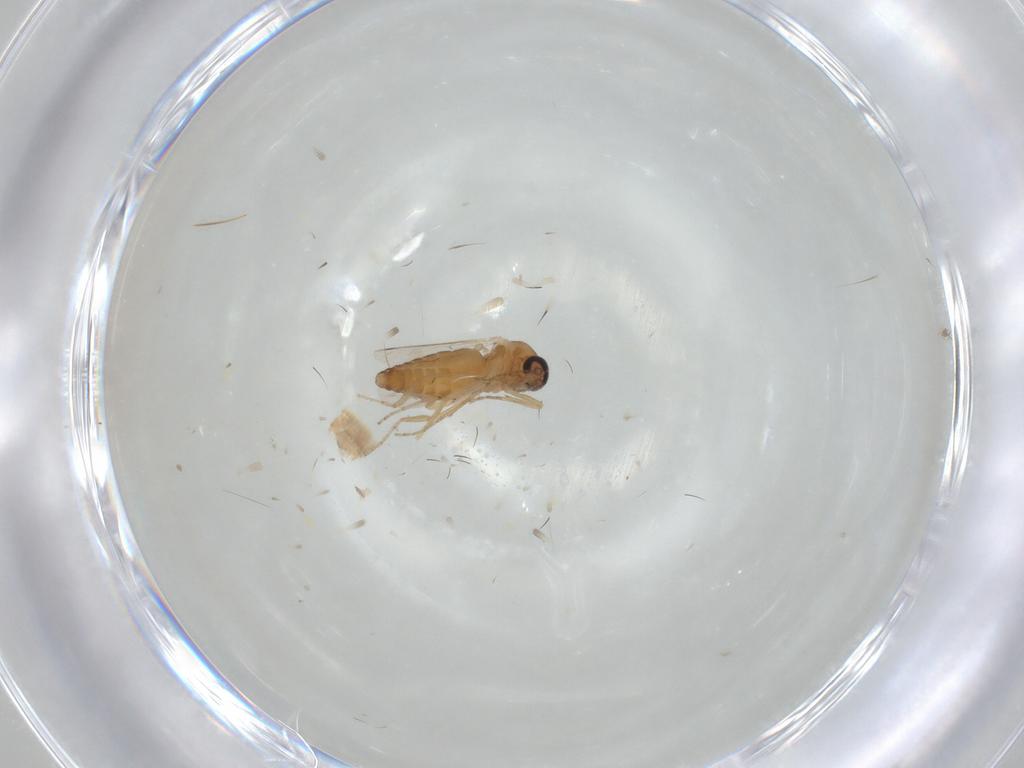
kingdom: Animalia
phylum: Arthropoda
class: Insecta
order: Diptera
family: Ceratopogonidae
